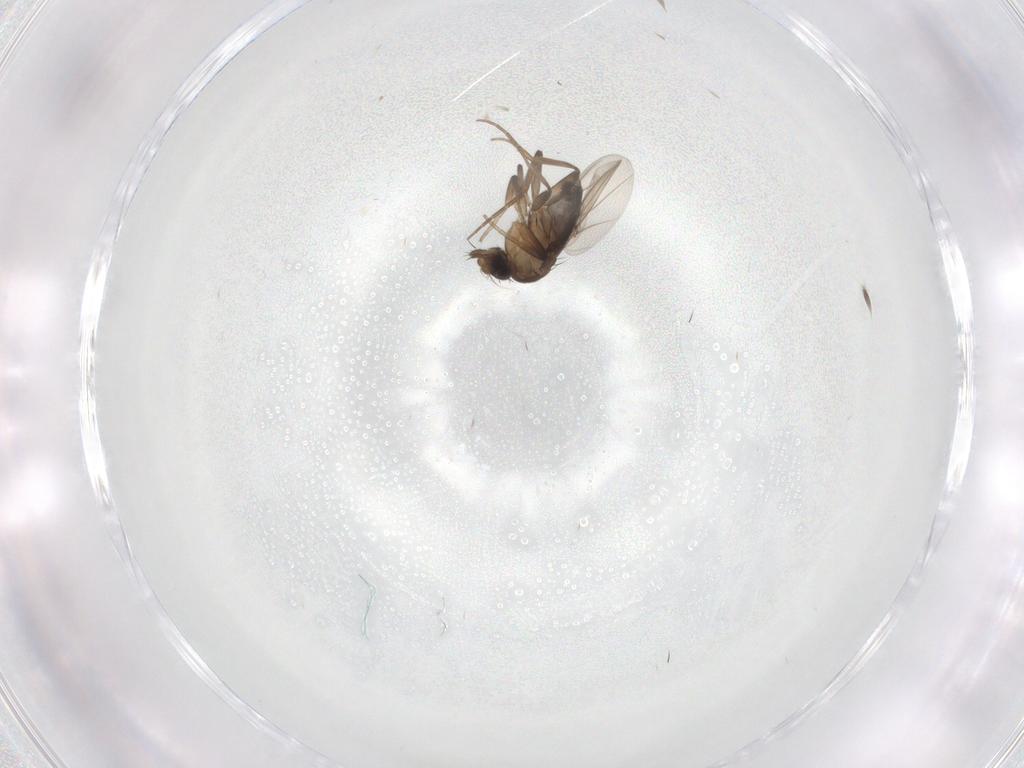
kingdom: Animalia
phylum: Arthropoda
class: Insecta
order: Diptera
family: Phoridae
